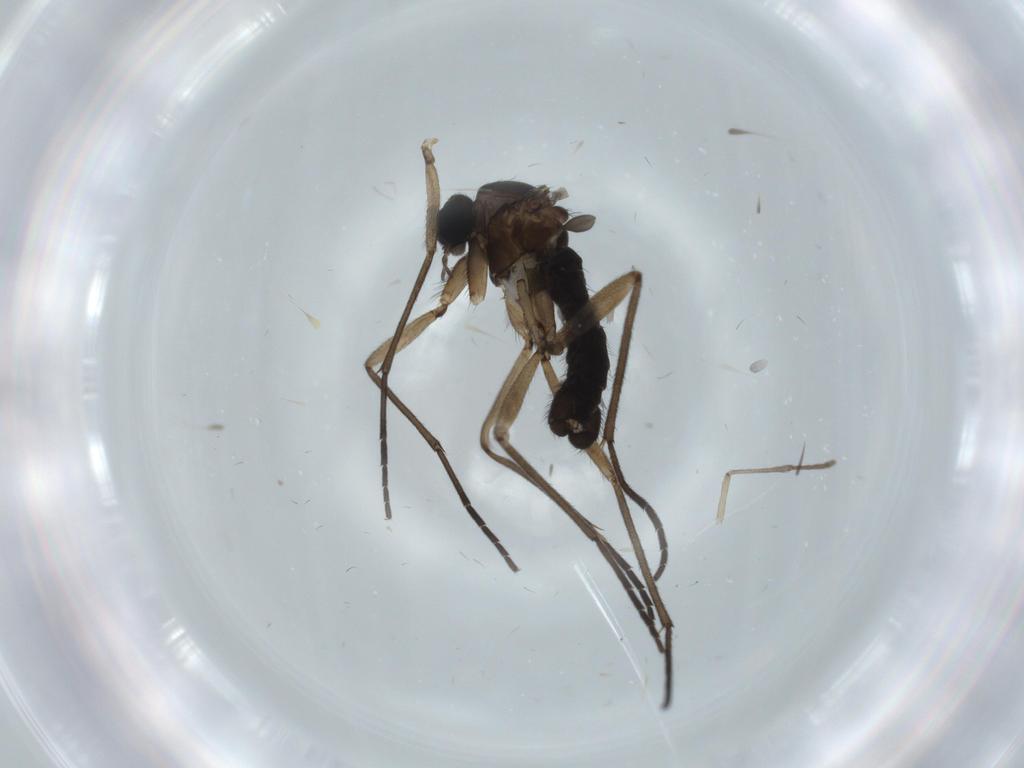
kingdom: Animalia
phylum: Arthropoda
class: Insecta
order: Diptera
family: Sciaridae
